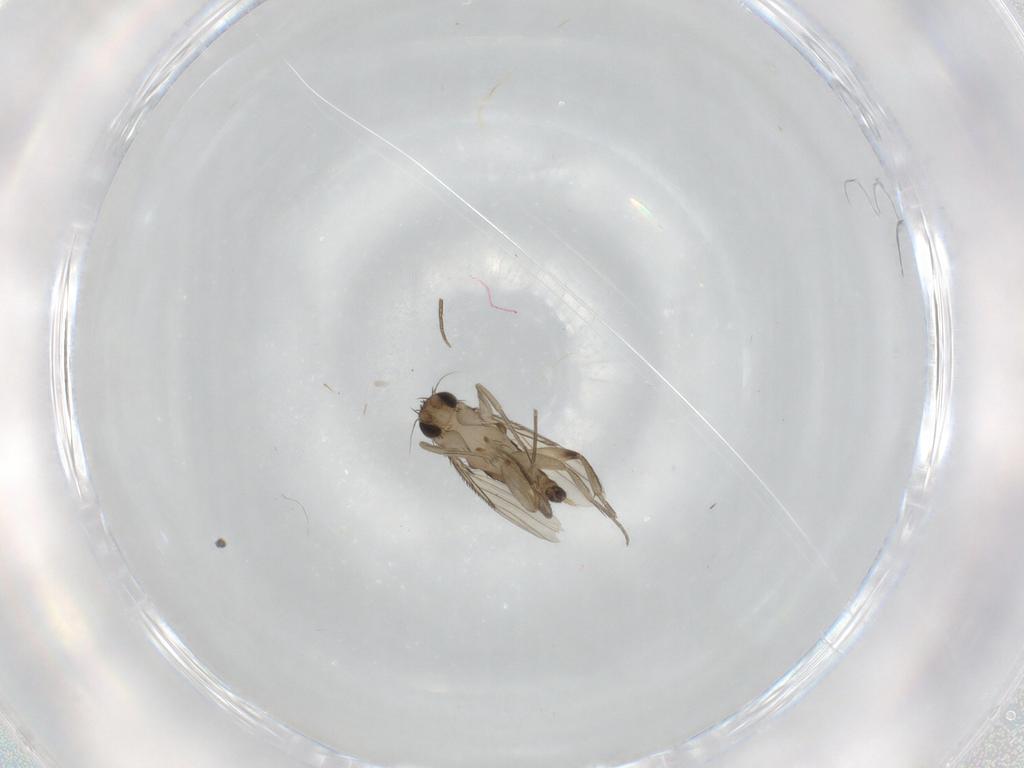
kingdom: Animalia
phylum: Arthropoda
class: Insecta
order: Diptera
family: Phoridae
